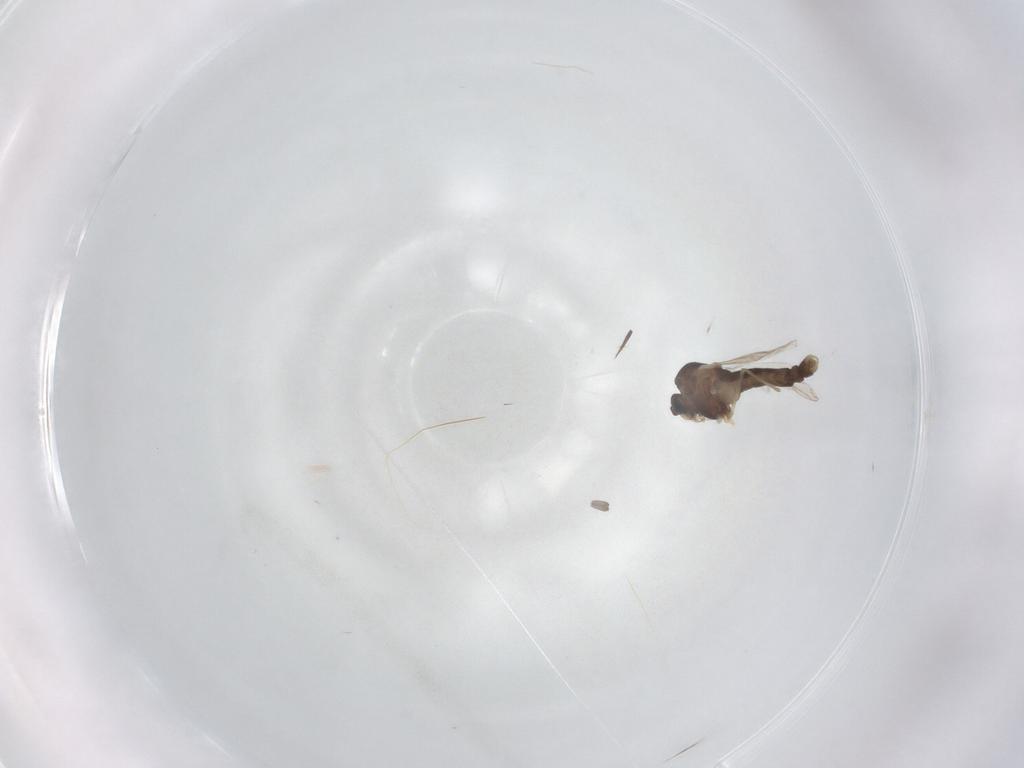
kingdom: Animalia
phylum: Arthropoda
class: Insecta
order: Diptera
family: Chironomidae
